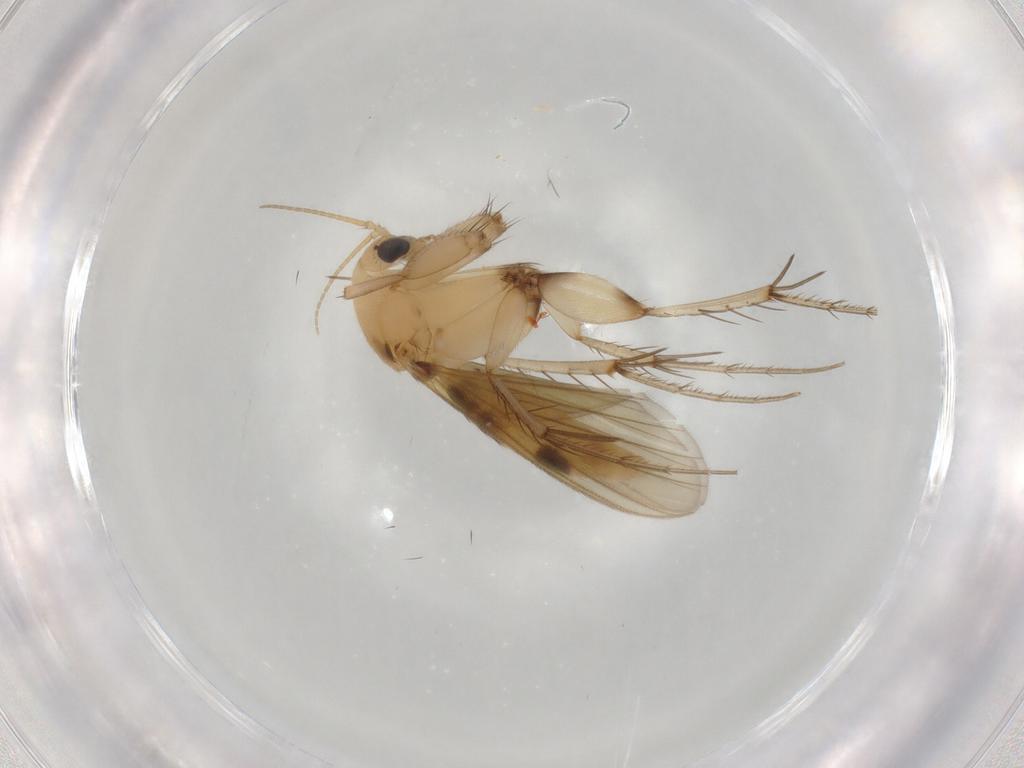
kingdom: Animalia
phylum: Arthropoda
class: Insecta
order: Diptera
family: Mycetophilidae
